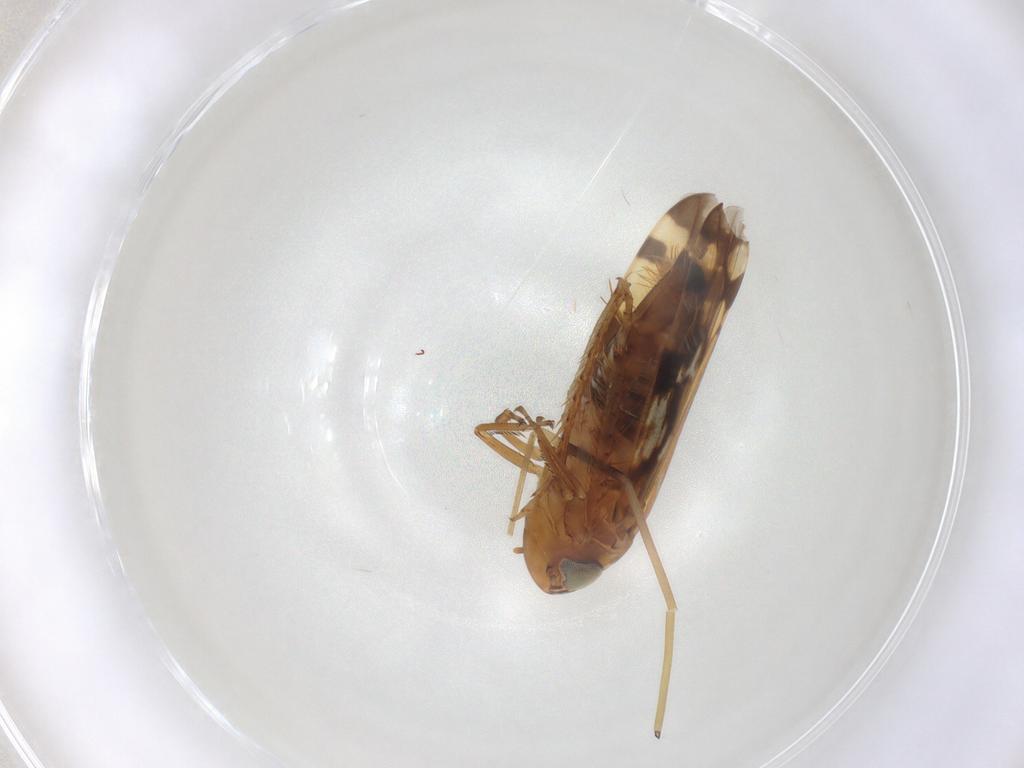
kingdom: Animalia
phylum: Arthropoda
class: Insecta
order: Hemiptera
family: Cicadellidae
